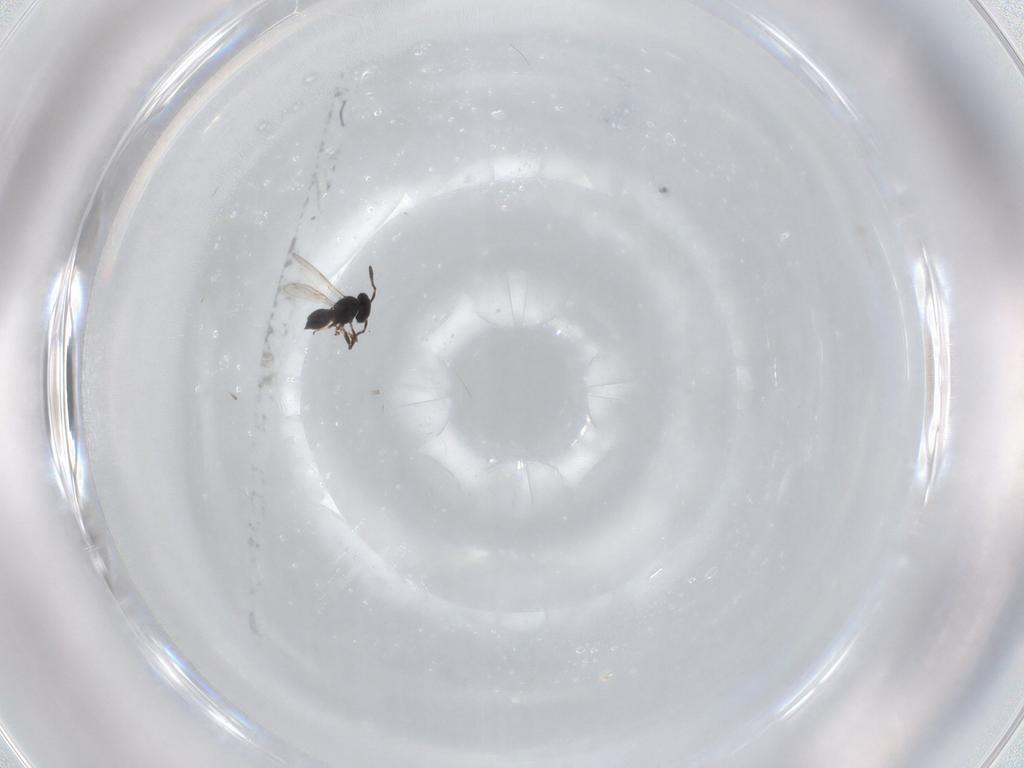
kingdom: Animalia
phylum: Arthropoda
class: Insecta
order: Hymenoptera
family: Scelionidae
